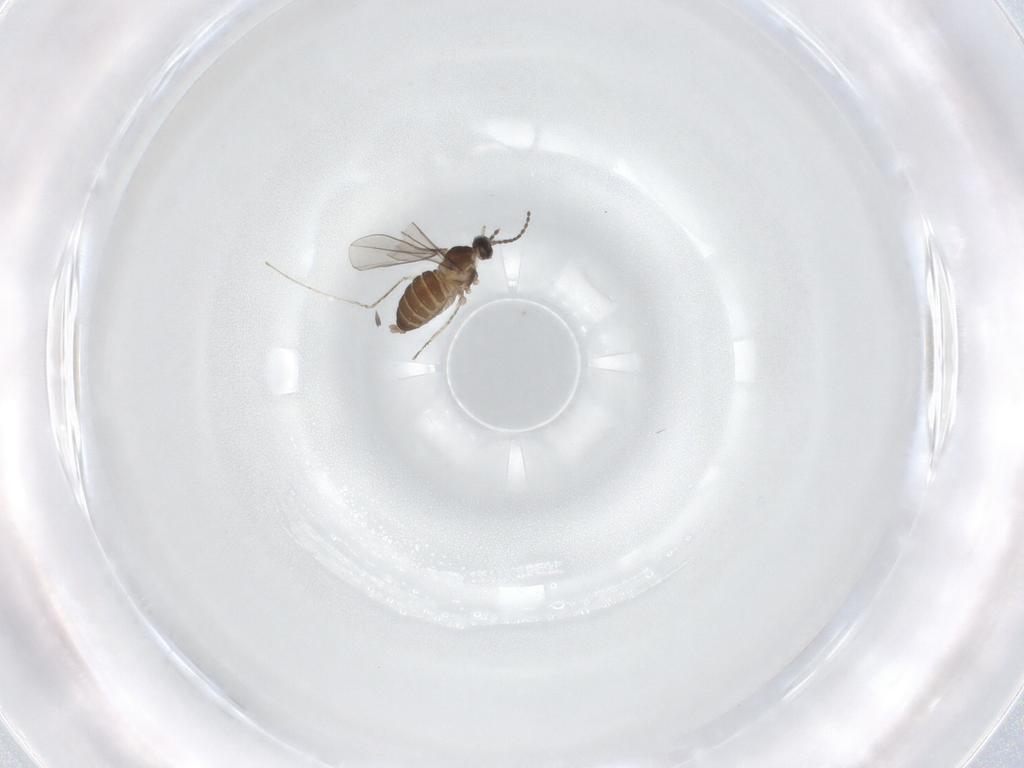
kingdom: Animalia
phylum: Arthropoda
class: Insecta
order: Diptera
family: Cecidomyiidae
